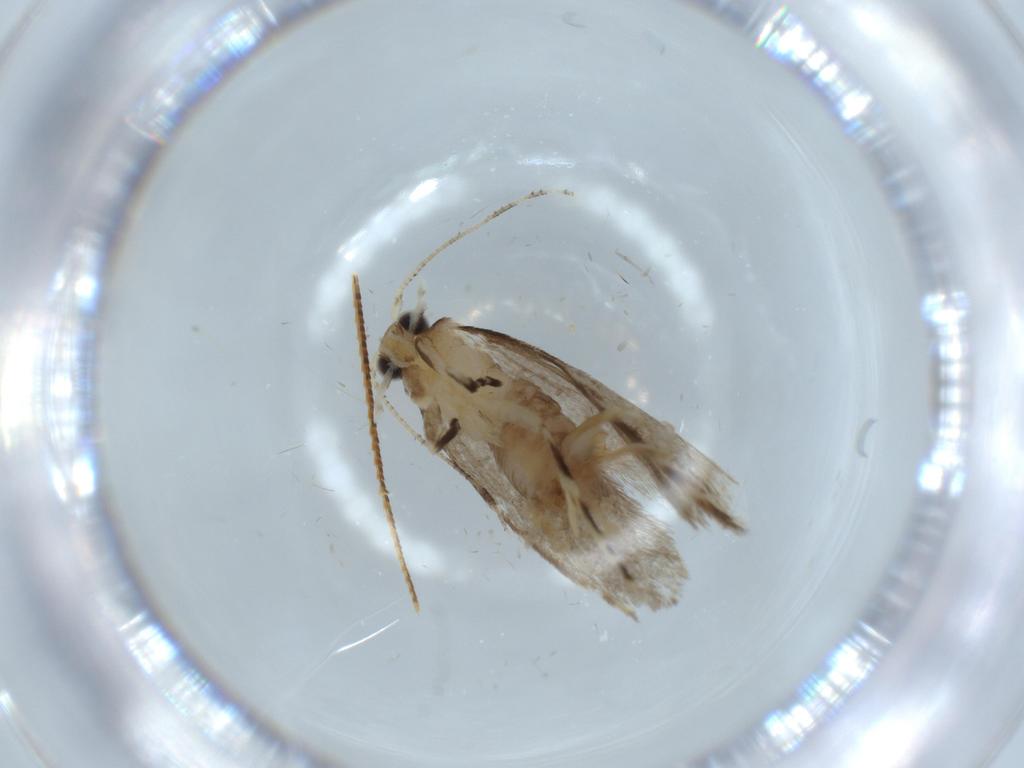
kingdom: Animalia
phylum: Arthropoda
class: Insecta
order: Lepidoptera
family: Tineidae
